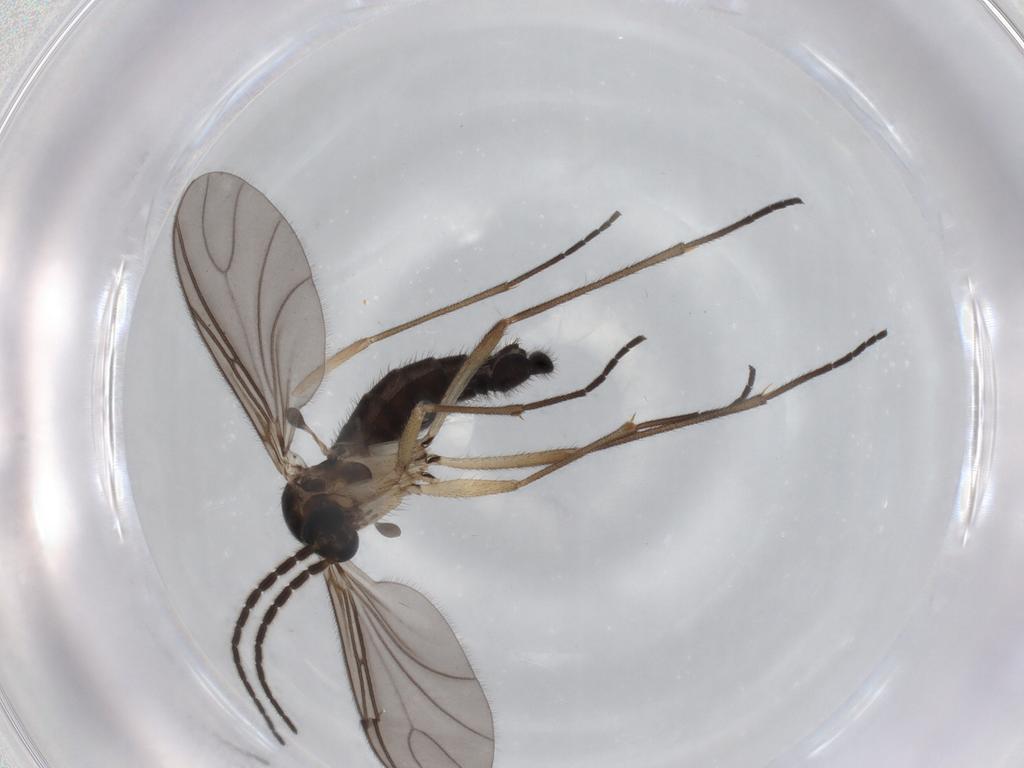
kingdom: Animalia
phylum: Arthropoda
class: Insecta
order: Diptera
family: Sciaridae
